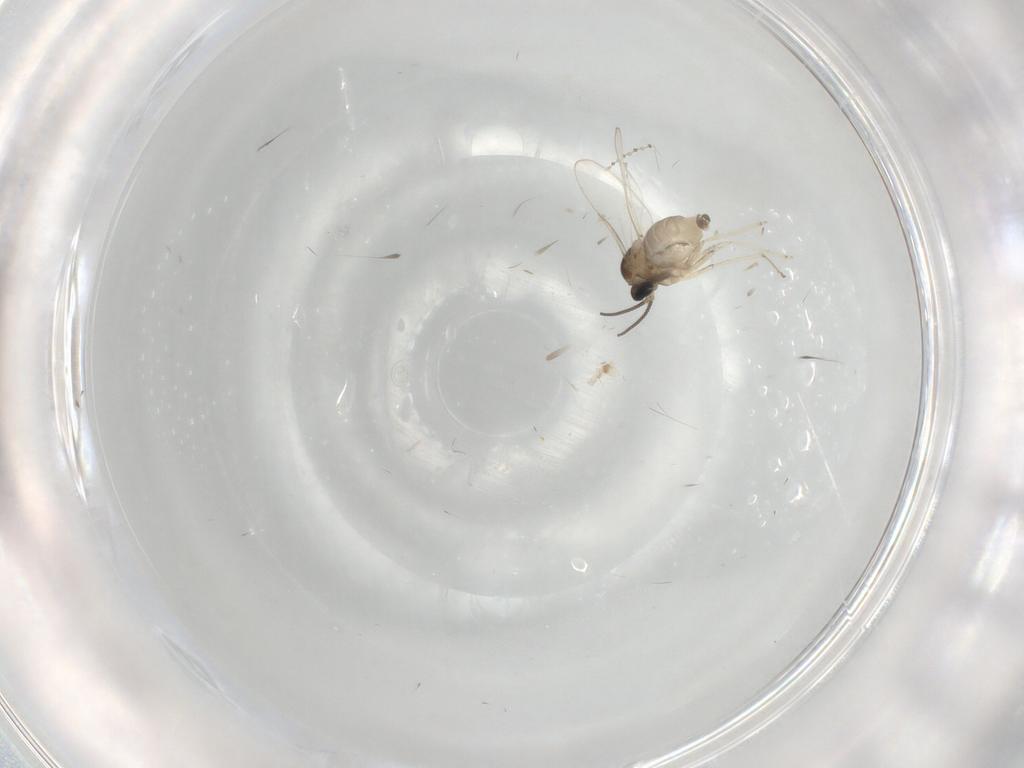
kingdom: Animalia
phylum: Arthropoda
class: Insecta
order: Diptera
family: Cecidomyiidae
